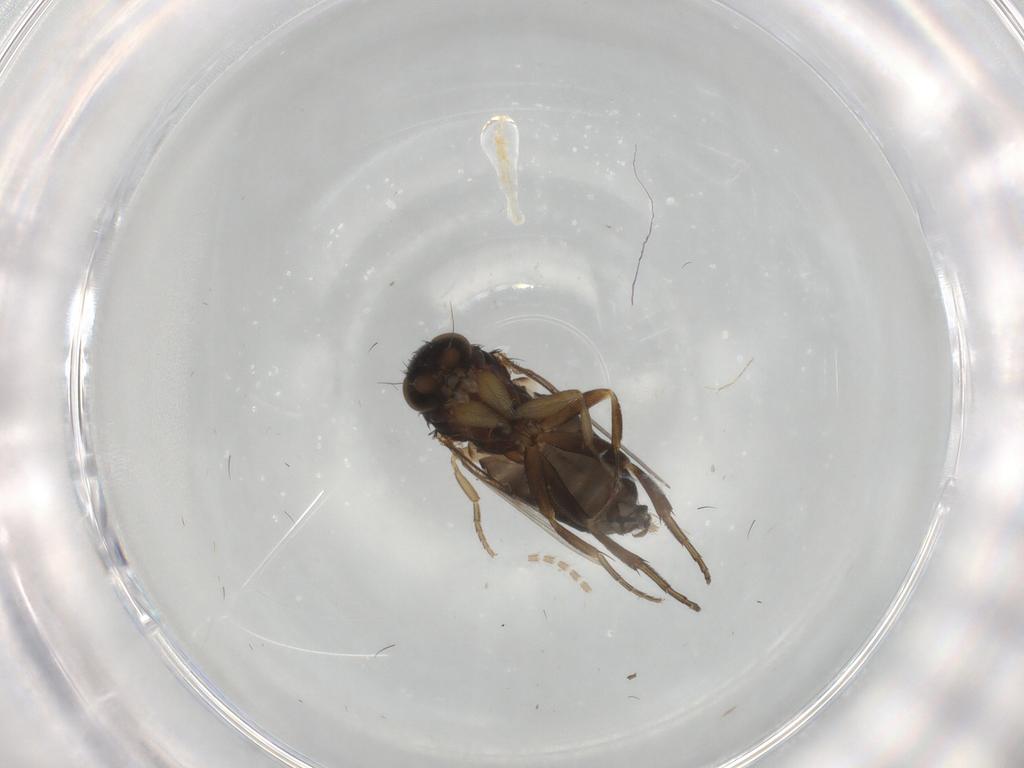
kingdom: Animalia
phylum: Arthropoda
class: Insecta
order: Diptera
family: Phoridae
